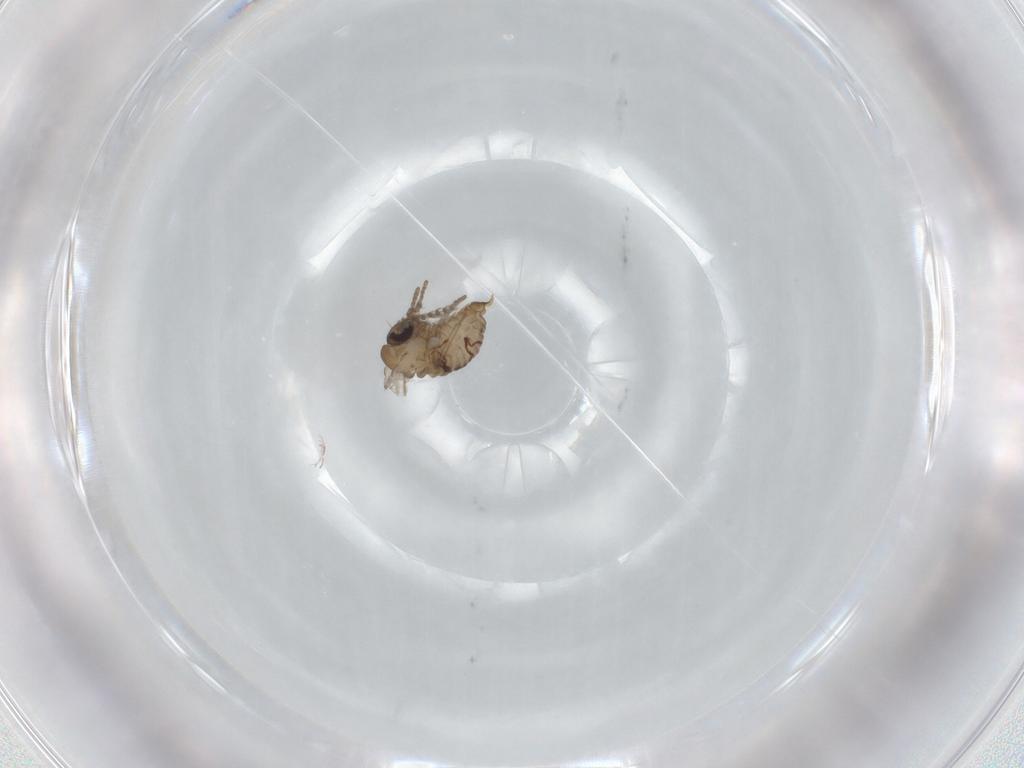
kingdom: Animalia
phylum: Arthropoda
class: Insecta
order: Diptera
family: Psychodidae
